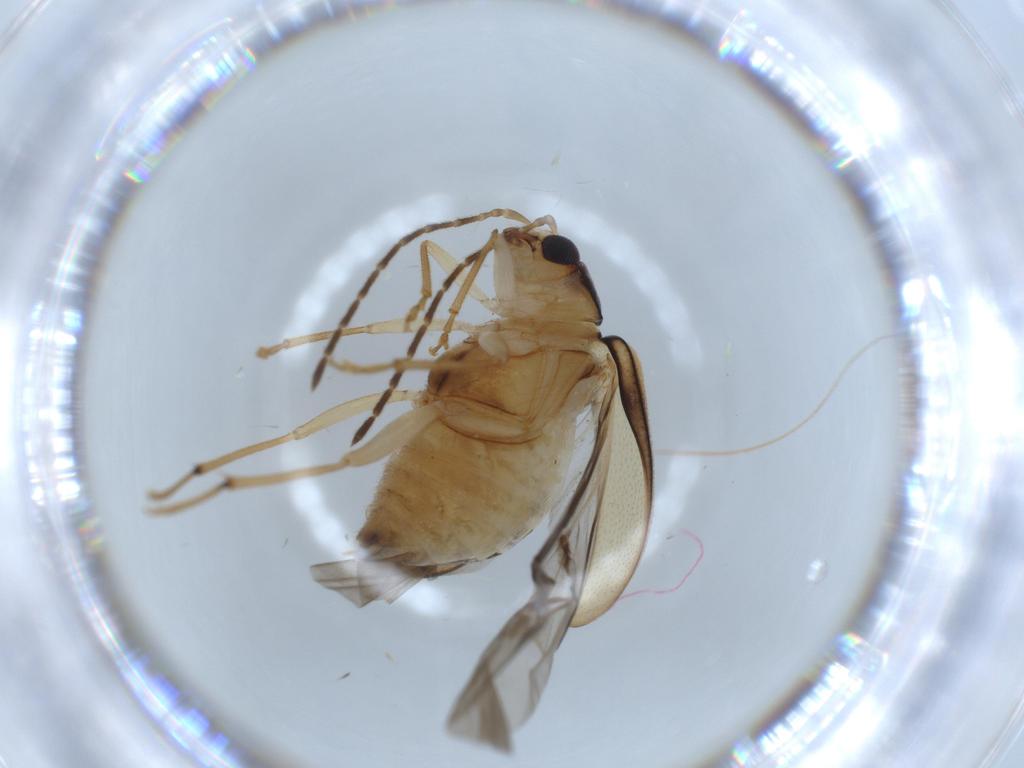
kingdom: Animalia
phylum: Arthropoda
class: Insecta
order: Coleoptera
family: Chrysomelidae
